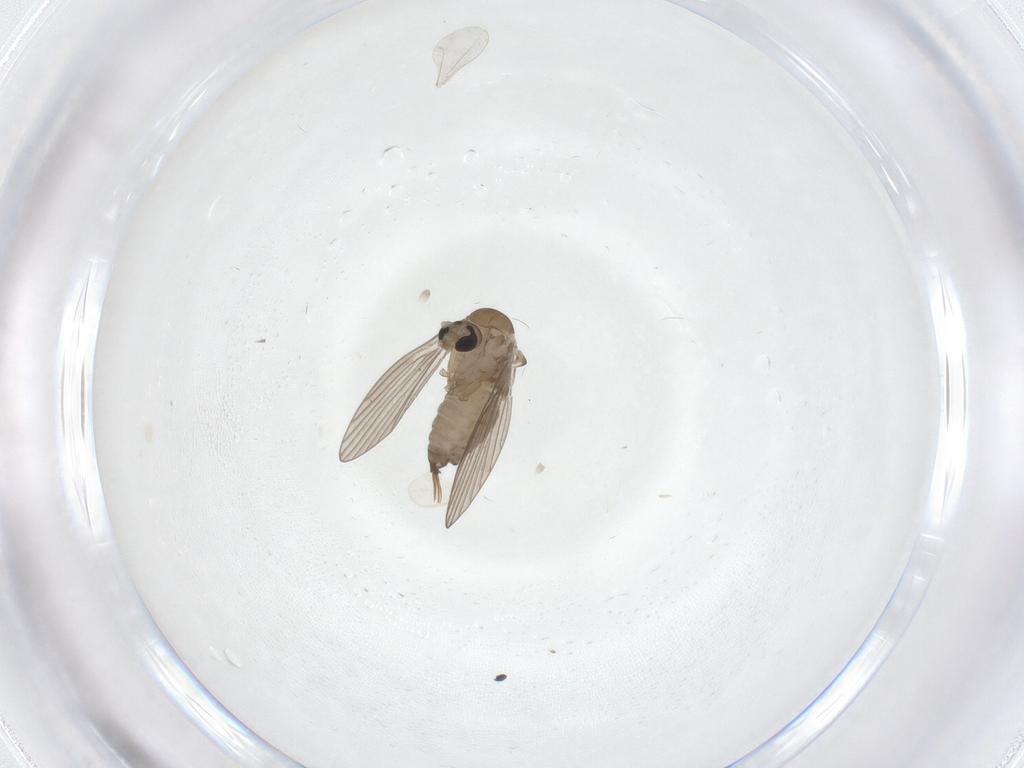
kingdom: Animalia
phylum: Arthropoda
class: Insecta
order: Diptera
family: Psychodidae
